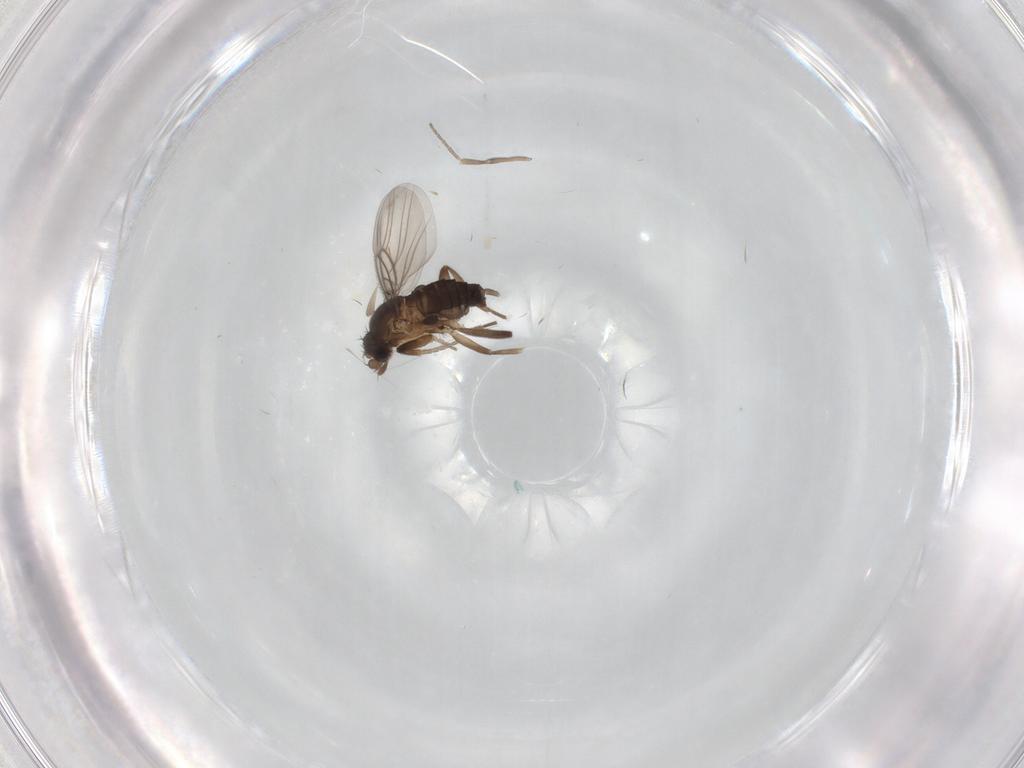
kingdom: Animalia
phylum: Arthropoda
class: Insecta
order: Diptera
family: Phoridae
